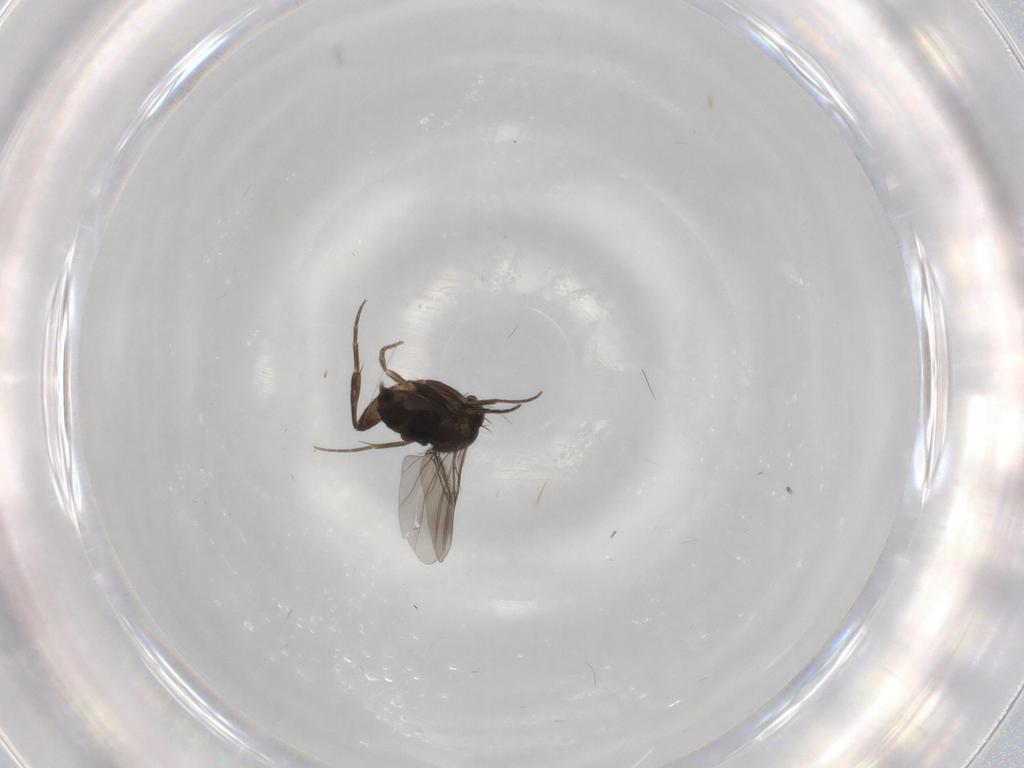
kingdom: Animalia
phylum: Arthropoda
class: Insecta
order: Diptera
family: Phoridae
